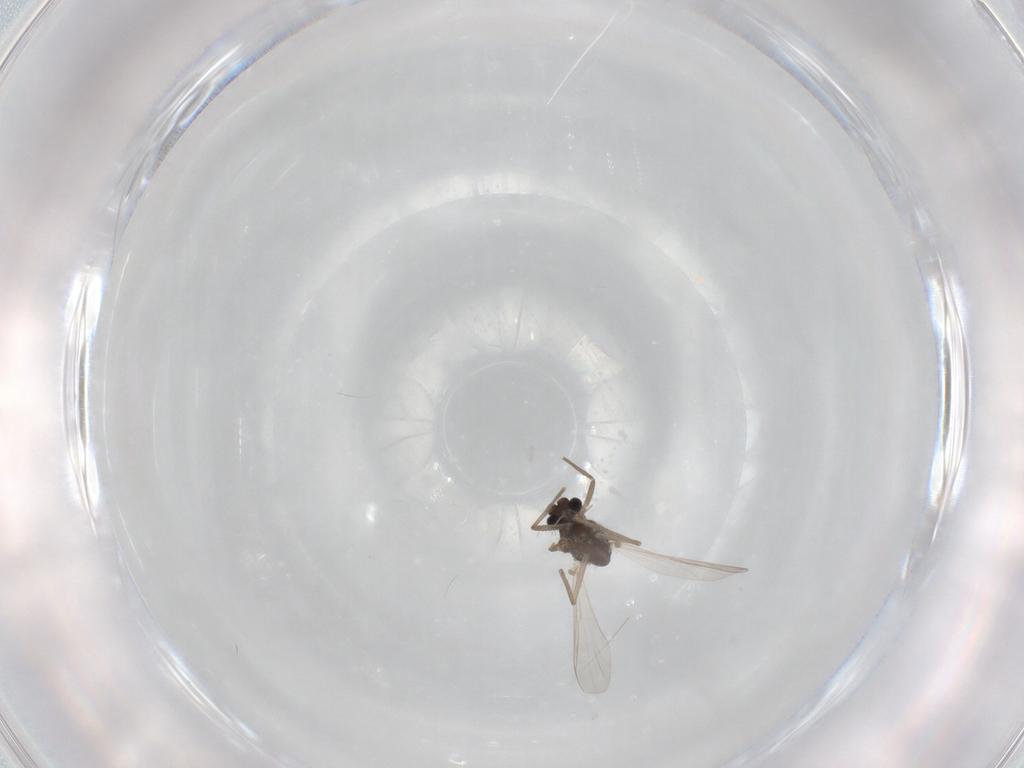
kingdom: Animalia
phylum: Arthropoda
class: Insecta
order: Diptera
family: Chironomidae
